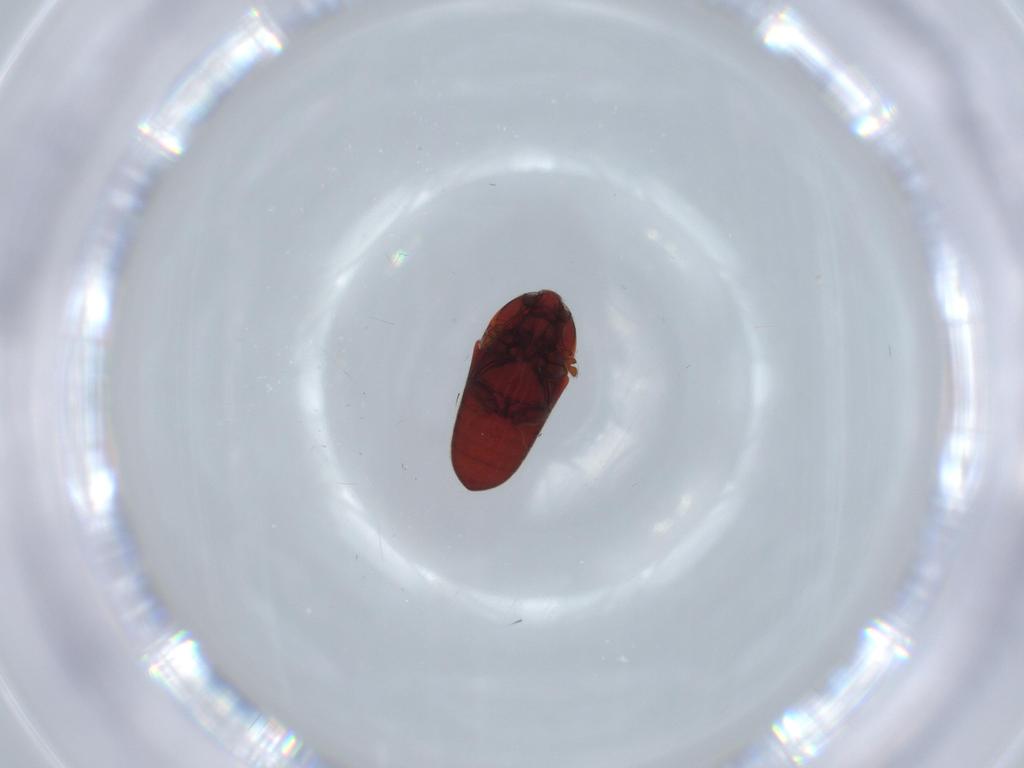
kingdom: Animalia
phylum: Arthropoda
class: Insecta
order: Coleoptera
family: Throscidae
